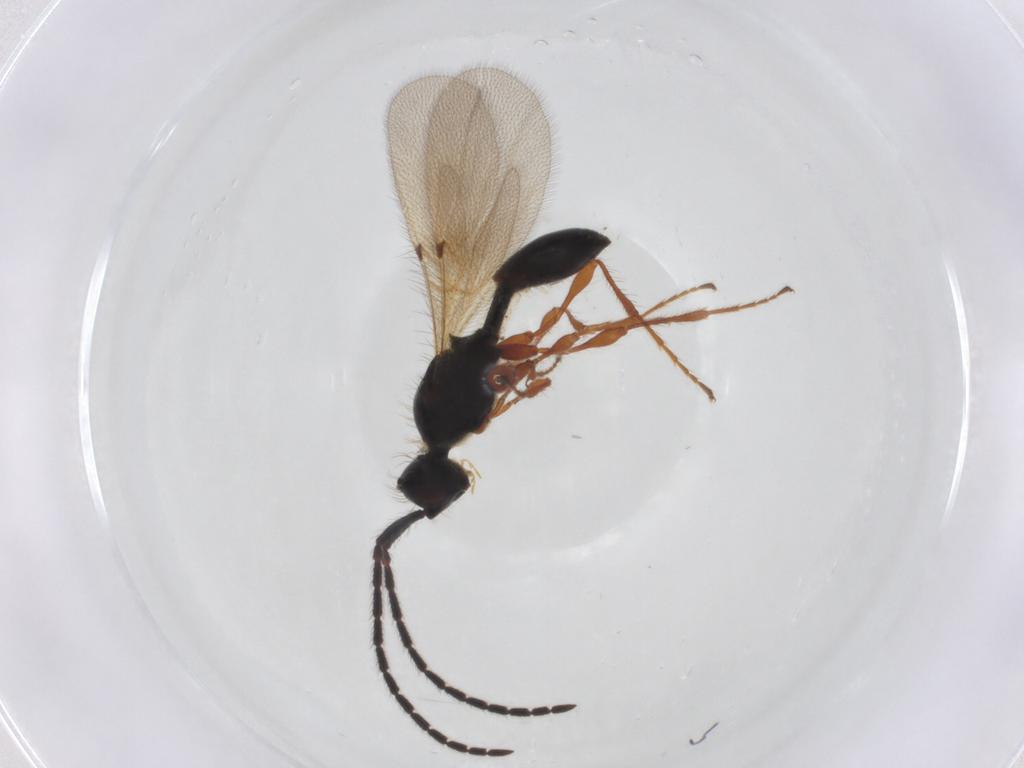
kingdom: Animalia
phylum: Arthropoda
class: Insecta
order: Hymenoptera
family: Diapriidae
